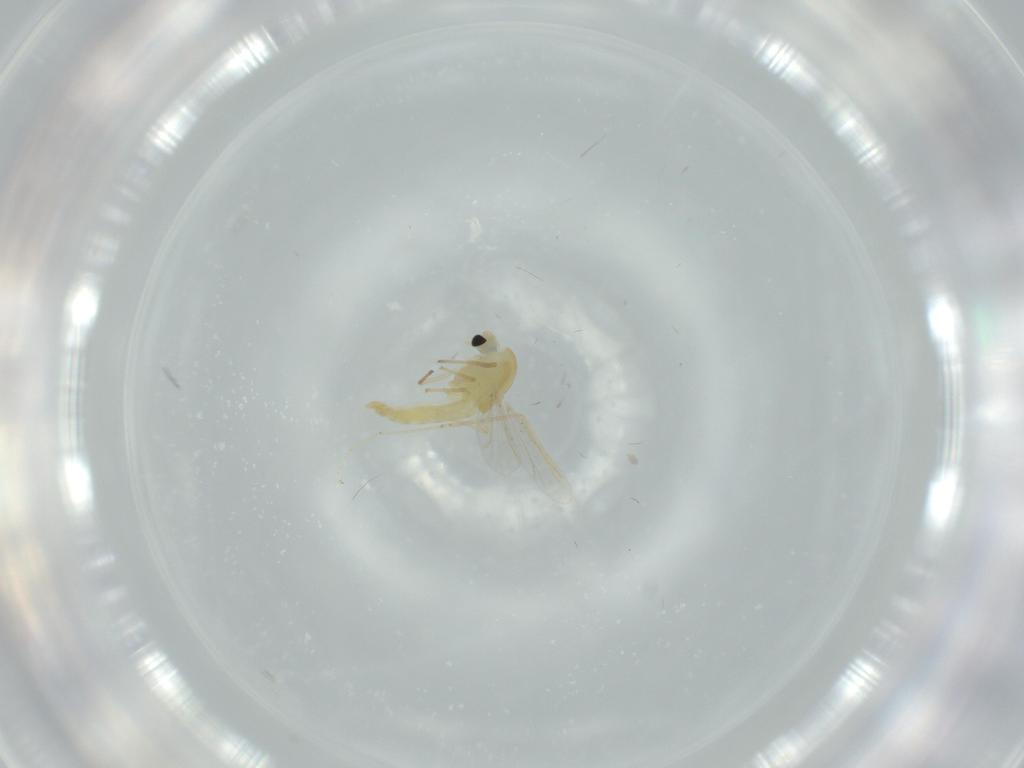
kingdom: Animalia
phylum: Arthropoda
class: Insecta
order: Diptera
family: Chironomidae
